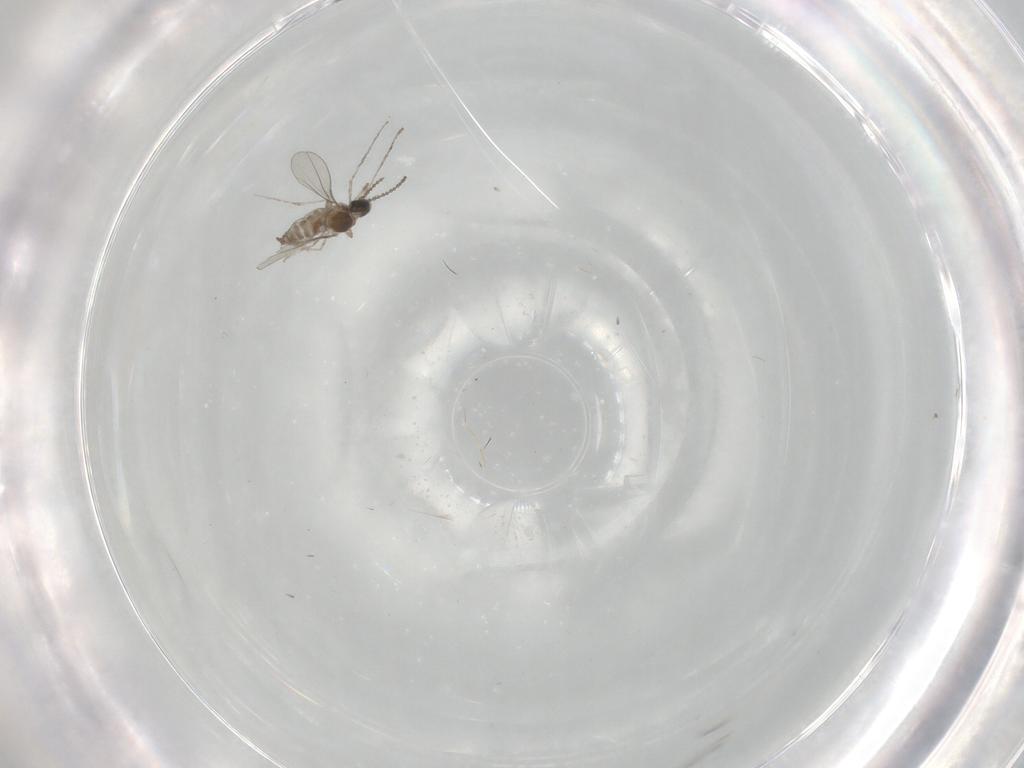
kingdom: Animalia
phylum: Arthropoda
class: Insecta
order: Diptera
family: Cecidomyiidae
